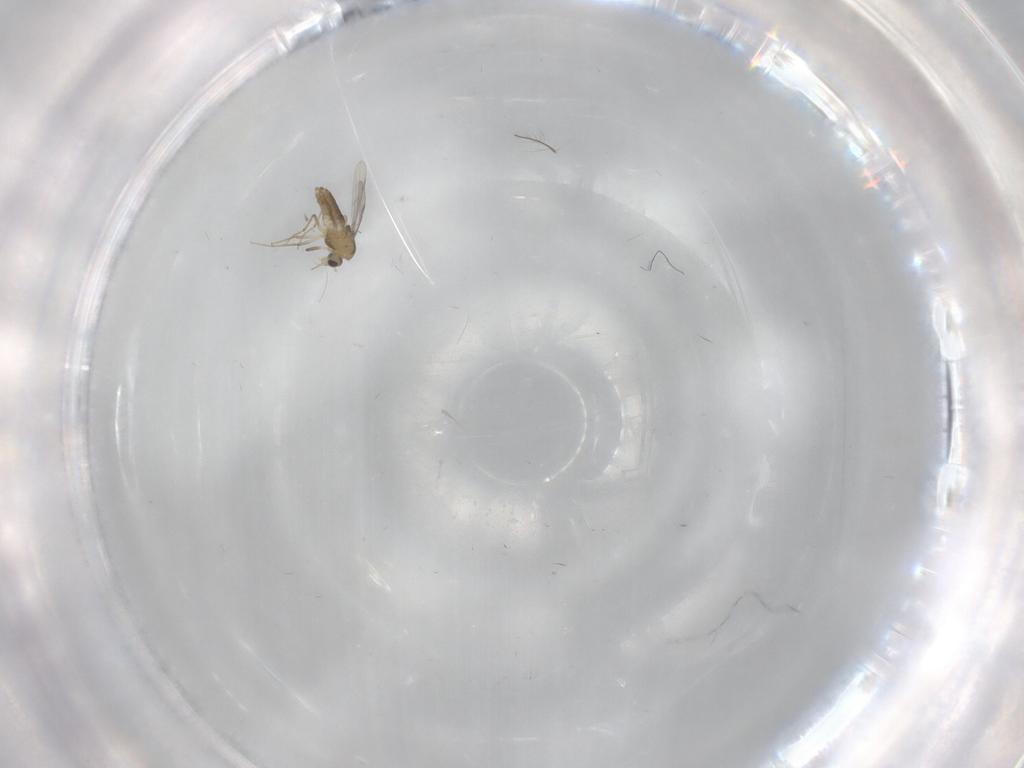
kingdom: Animalia
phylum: Arthropoda
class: Insecta
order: Diptera
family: Chironomidae
